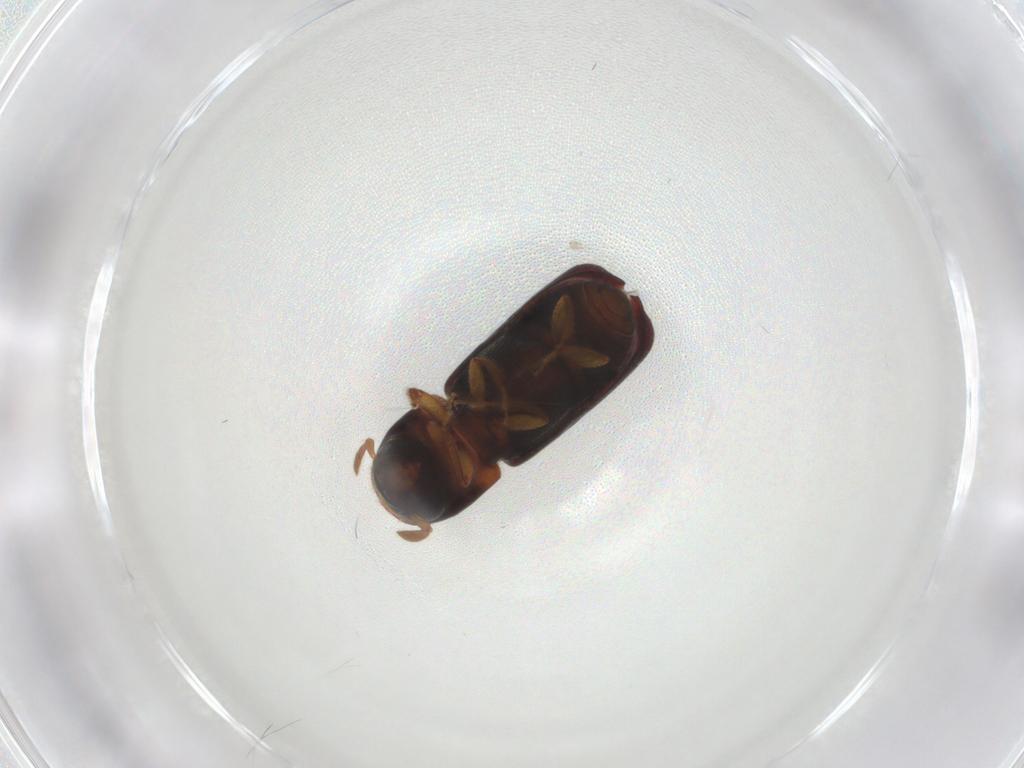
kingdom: Animalia
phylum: Arthropoda
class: Insecta
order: Coleoptera
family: Curculionidae
